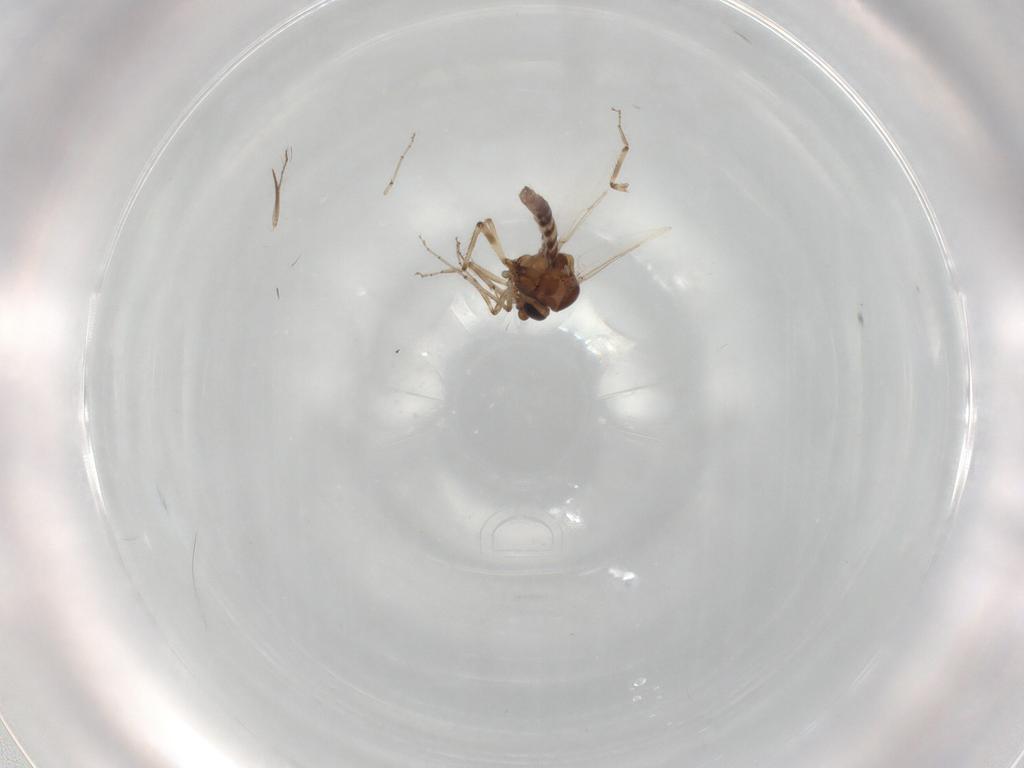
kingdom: Animalia
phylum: Arthropoda
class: Insecta
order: Diptera
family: Ceratopogonidae
